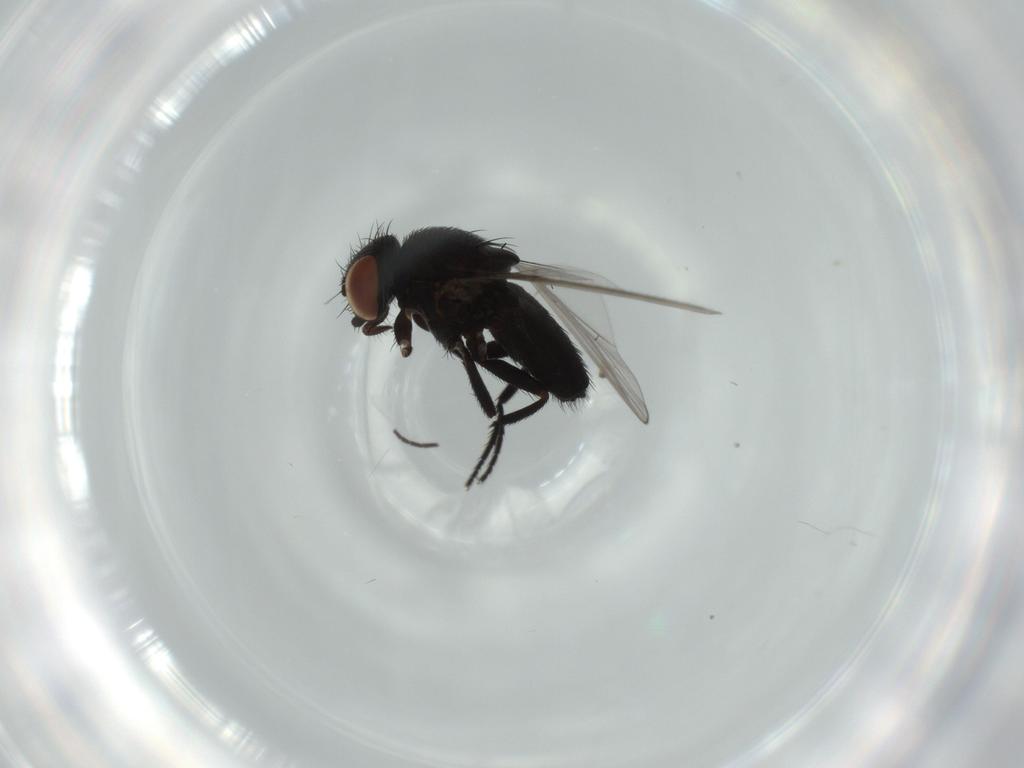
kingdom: Animalia
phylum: Arthropoda
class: Insecta
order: Diptera
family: Milichiidae
